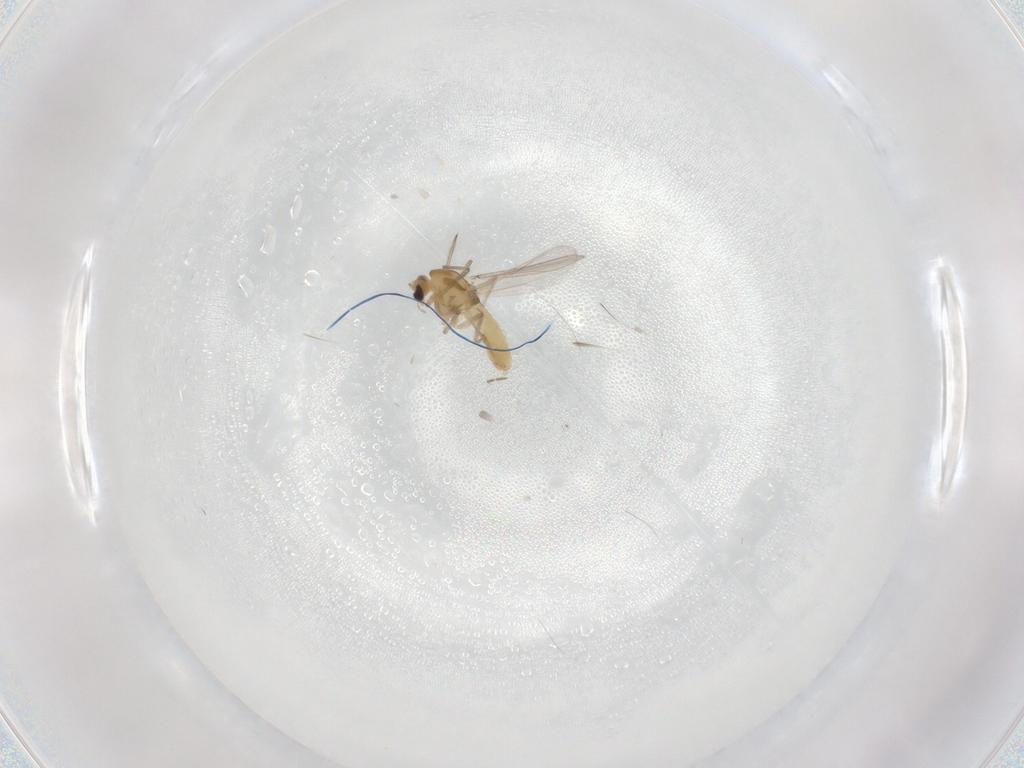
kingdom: Animalia
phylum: Arthropoda
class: Insecta
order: Diptera
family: Chironomidae
